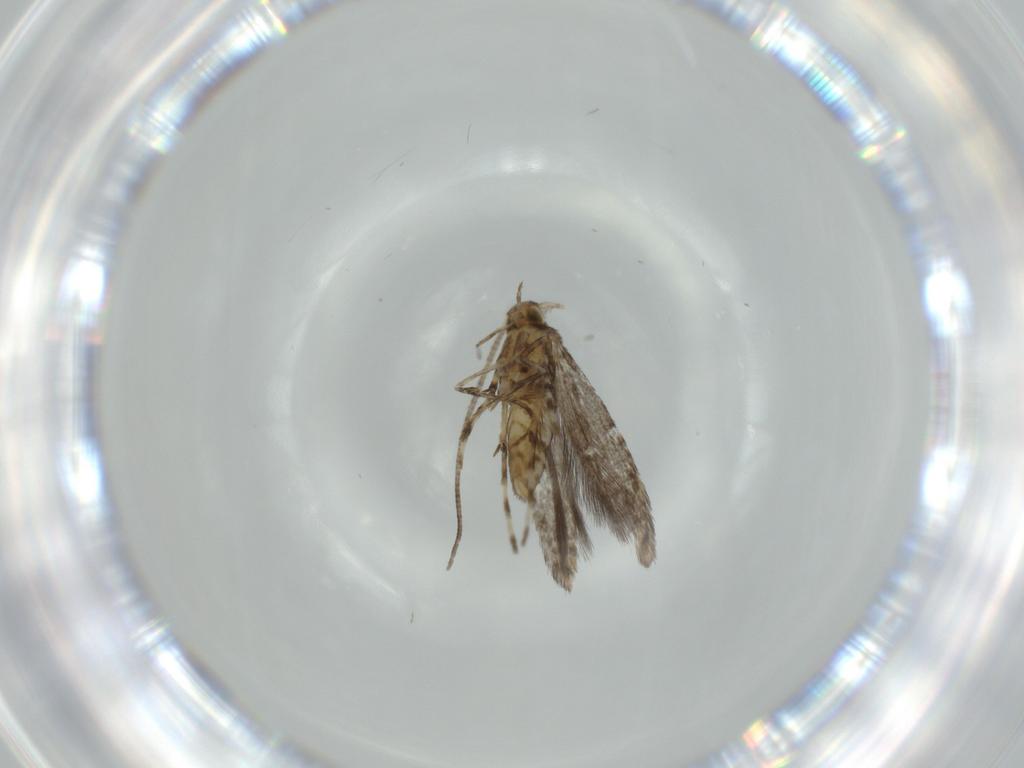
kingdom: Animalia
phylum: Arthropoda
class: Insecta
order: Lepidoptera
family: Gracillariidae
